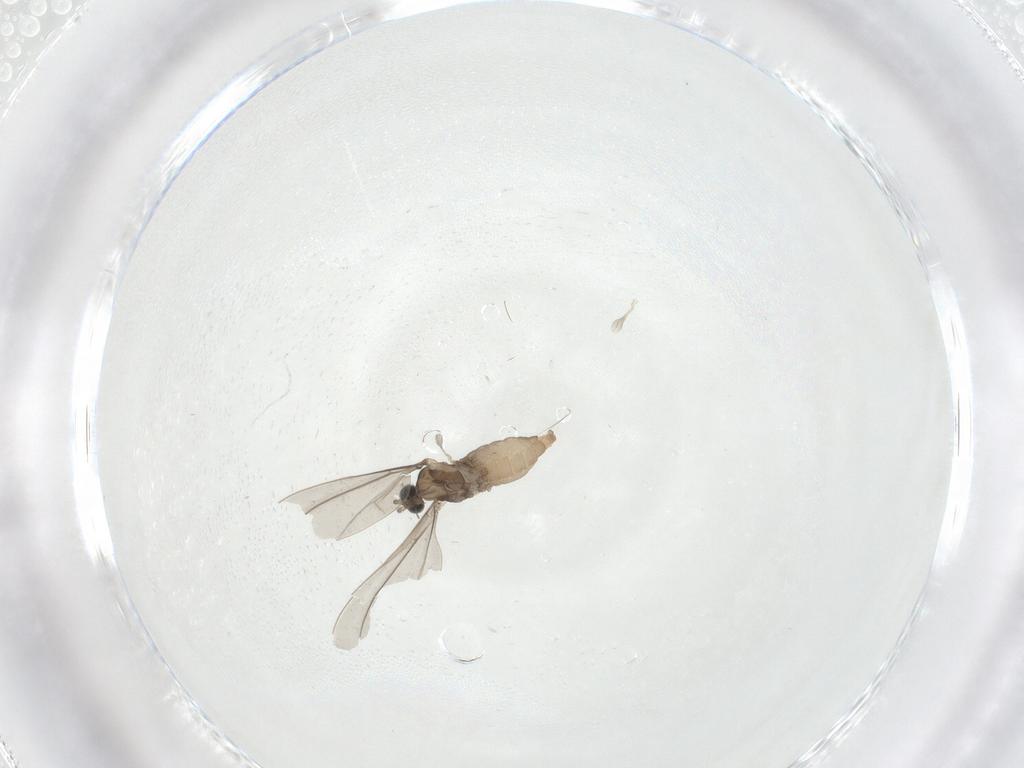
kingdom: Animalia
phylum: Arthropoda
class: Insecta
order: Diptera
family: Cecidomyiidae
